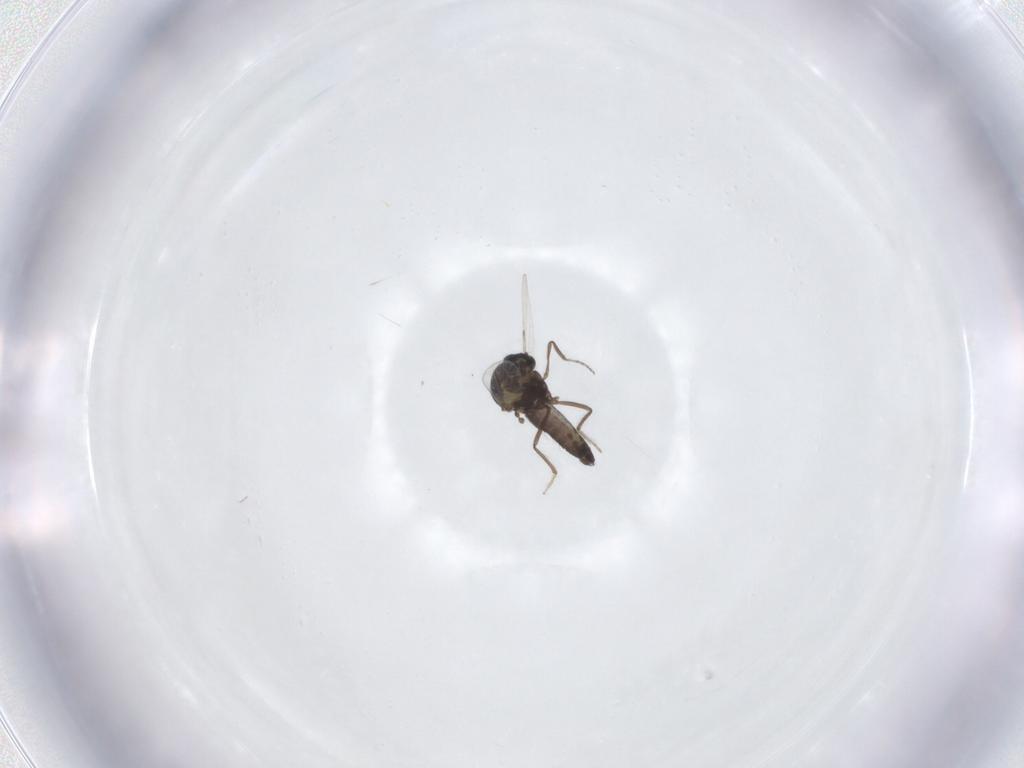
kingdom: Animalia
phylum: Arthropoda
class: Insecta
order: Diptera
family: Ceratopogonidae
